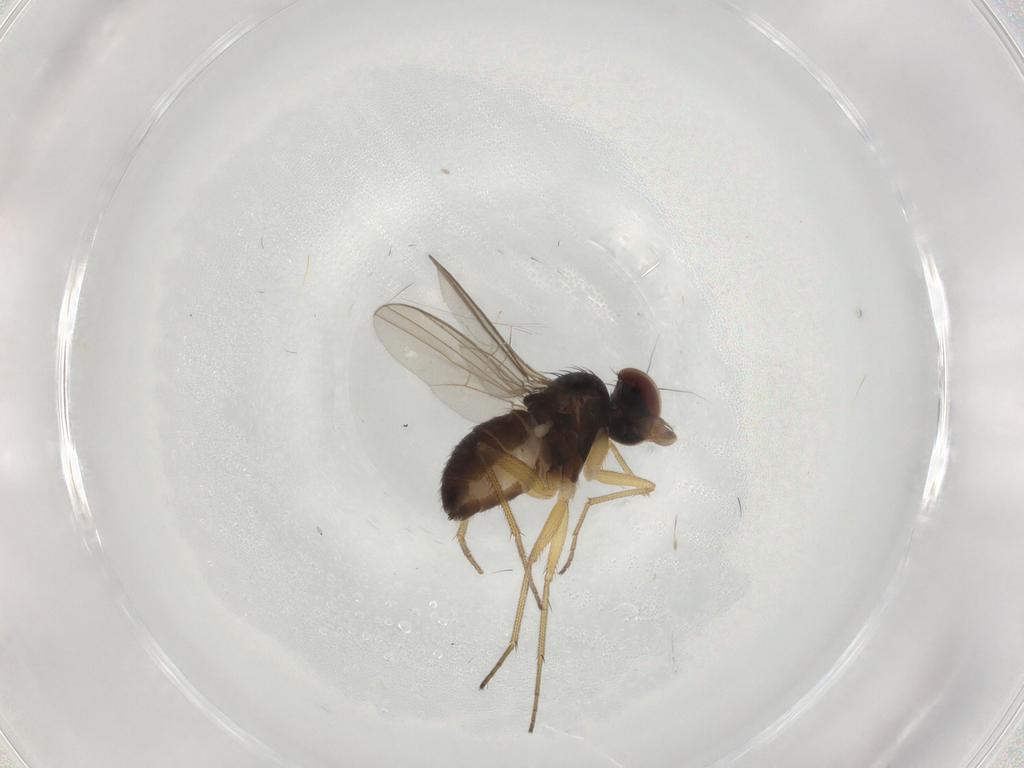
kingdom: Animalia
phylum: Arthropoda
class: Insecta
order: Diptera
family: Dolichopodidae
